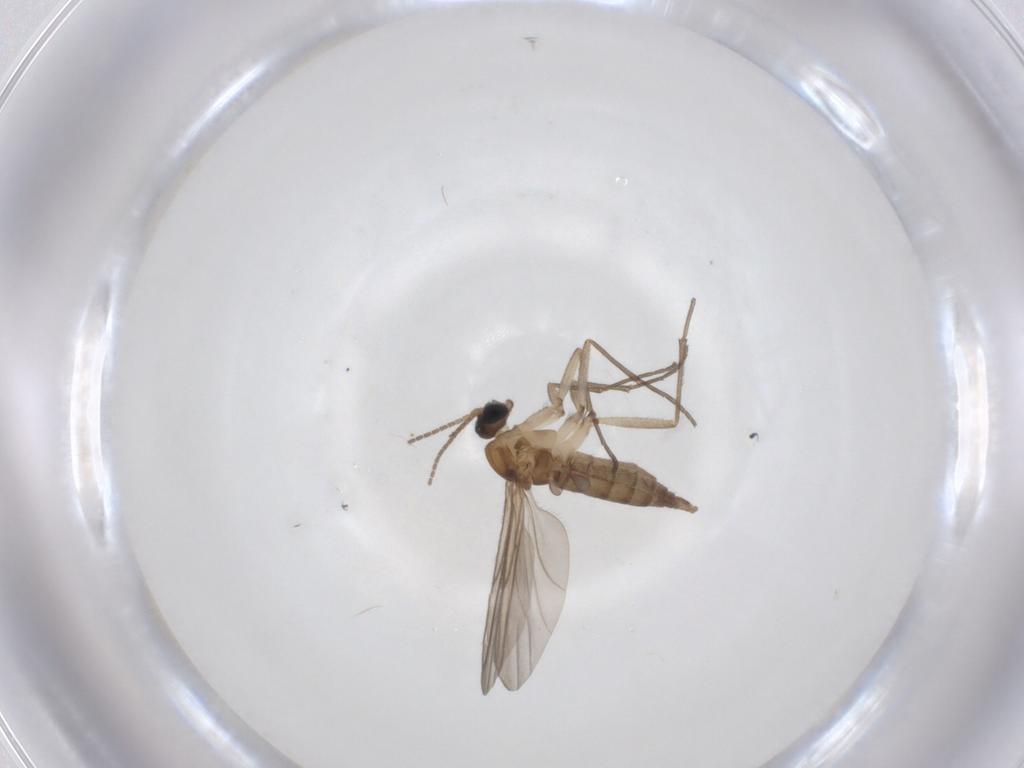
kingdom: Animalia
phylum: Arthropoda
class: Insecta
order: Diptera
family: Sciaridae
